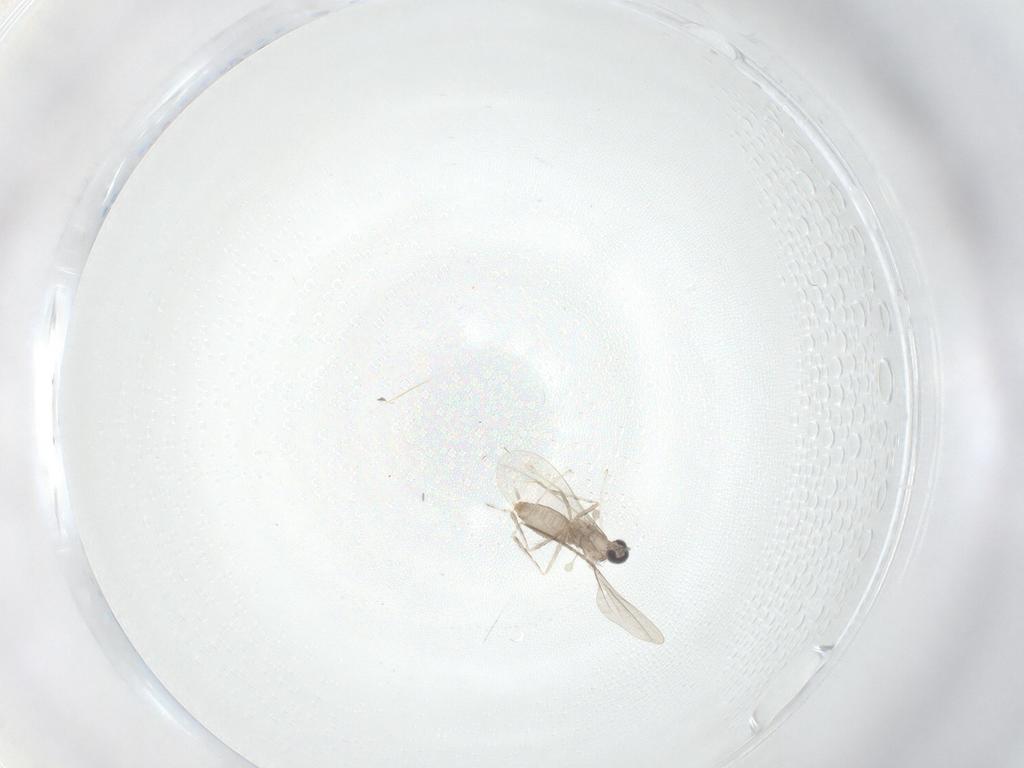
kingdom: Animalia
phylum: Arthropoda
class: Insecta
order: Diptera
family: Cecidomyiidae
